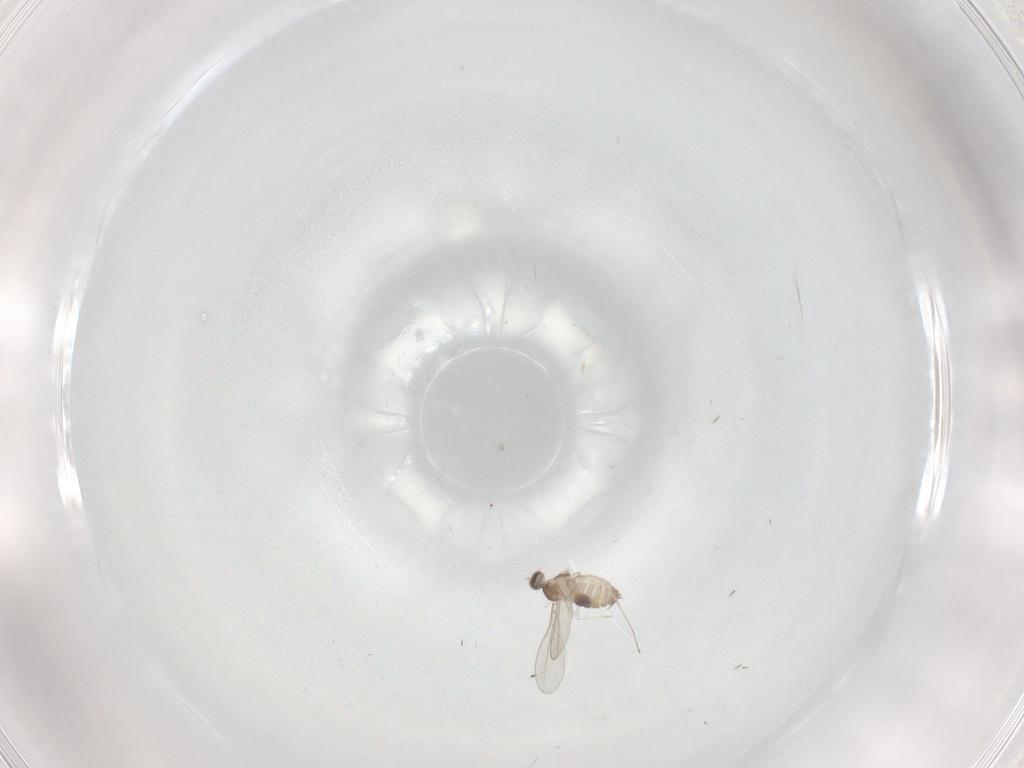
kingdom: Animalia
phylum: Arthropoda
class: Insecta
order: Diptera
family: Cecidomyiidae
